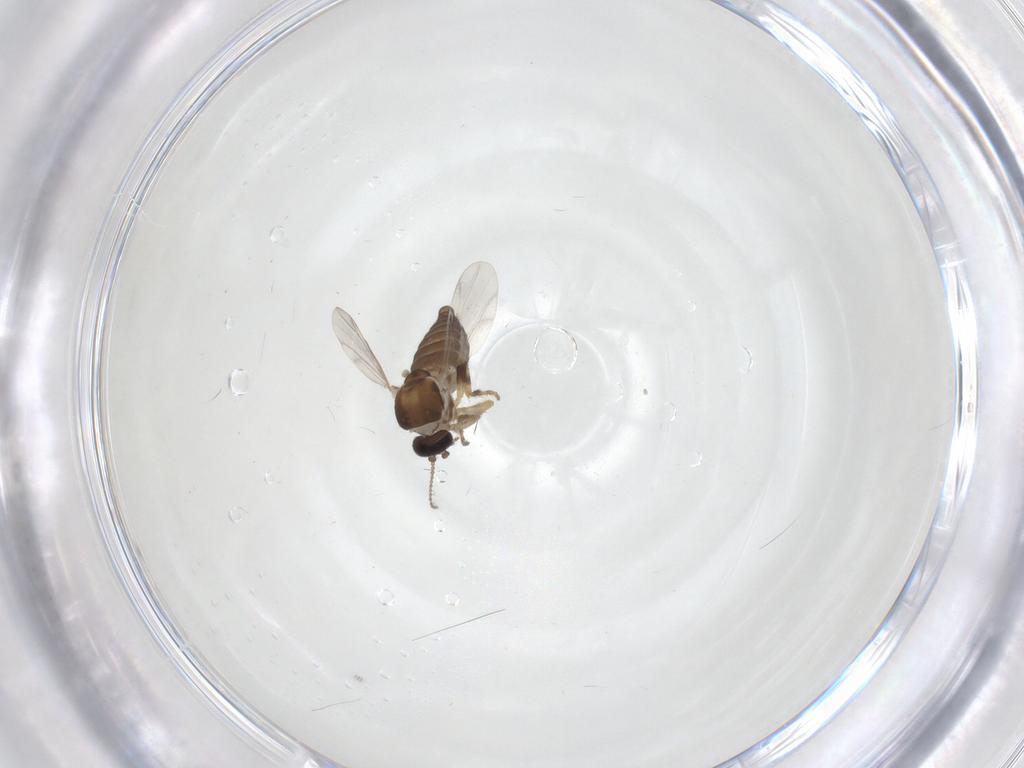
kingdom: Animalia
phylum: Arthropoda
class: Insecta
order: Diptera
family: Ceratopogonidae
